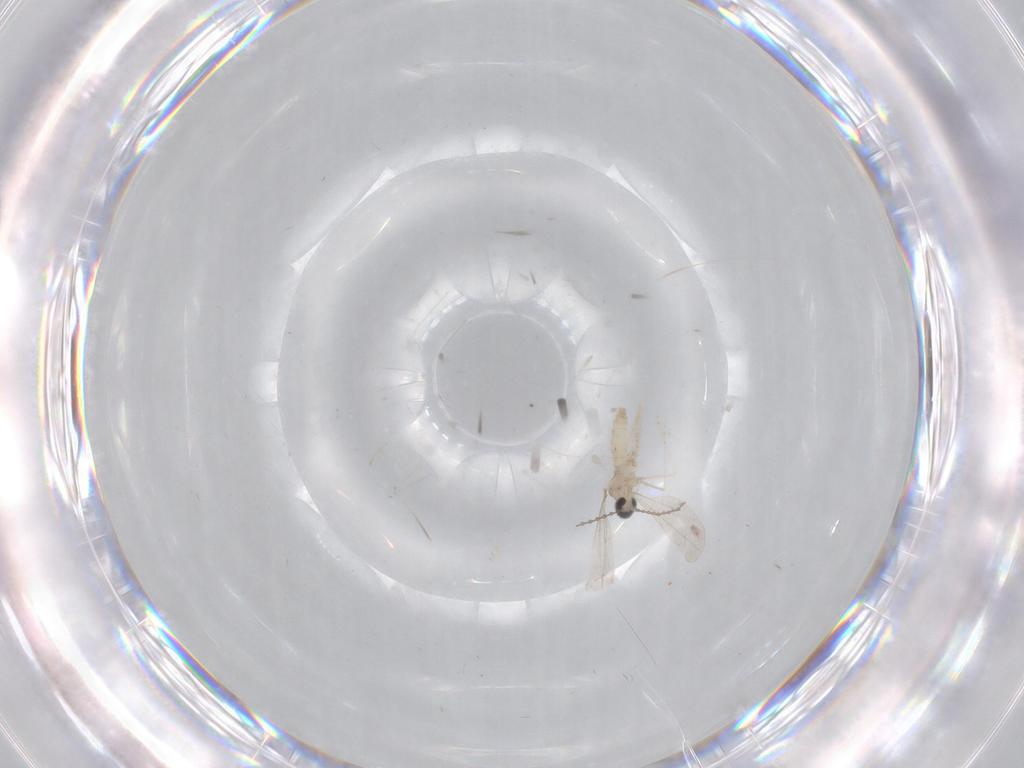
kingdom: Animalia
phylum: Arthropoda
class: Insecta
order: Diptera
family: Cecidomyiidae
